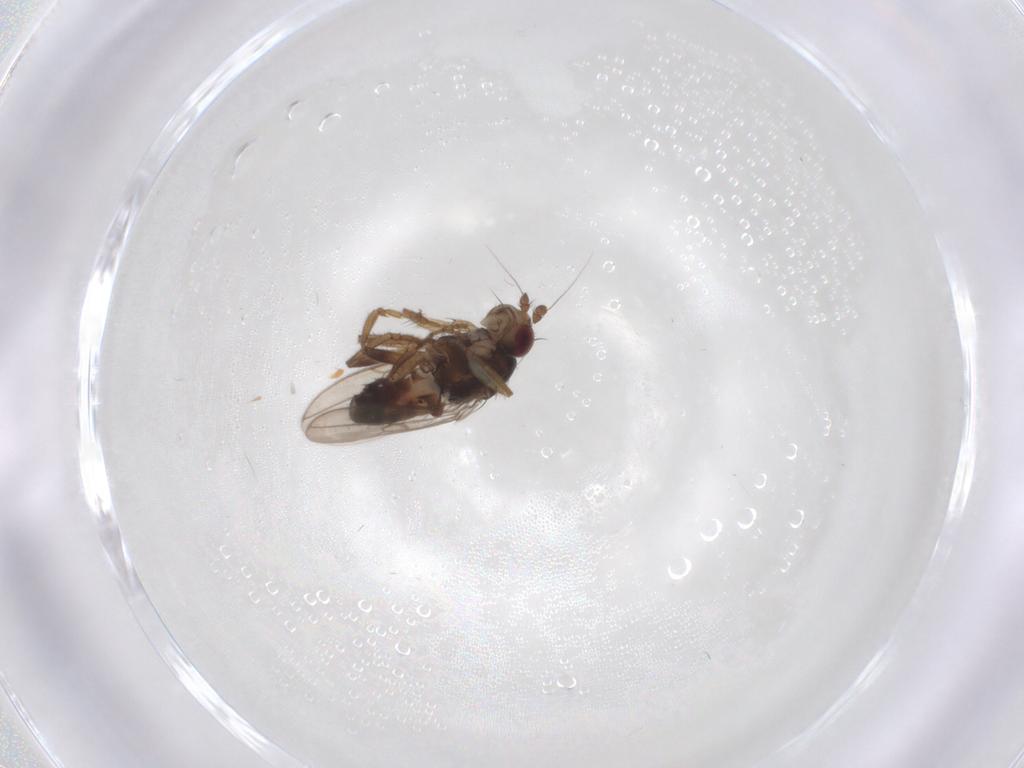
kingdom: Animalia
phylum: Arthropoda
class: Insecta
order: Diptera
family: Sphaeroceridae
